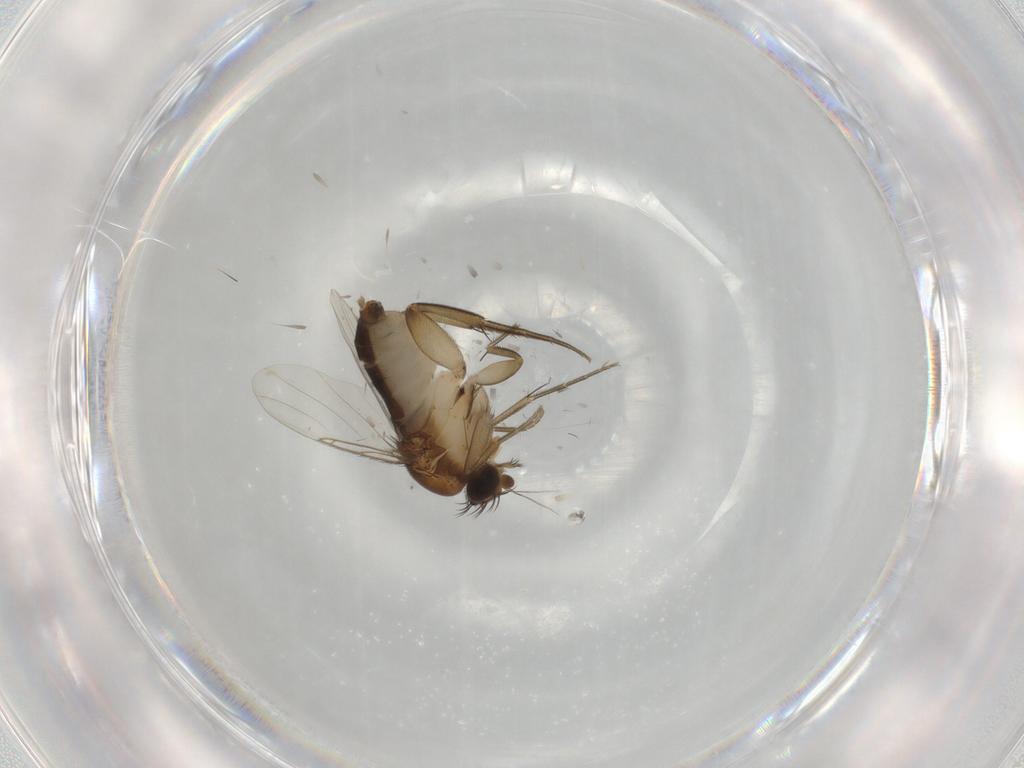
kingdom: Animalia
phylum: Arthropoda
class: Insecta
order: Diptera
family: Phoridae
